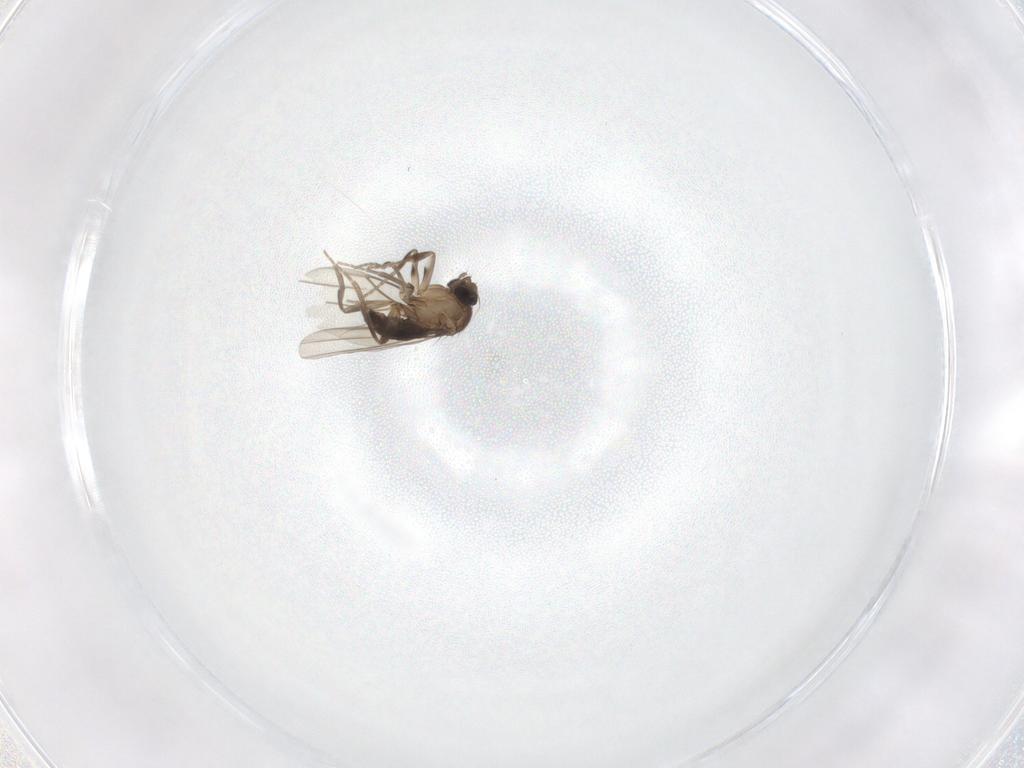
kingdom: Animalia
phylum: Arthropoda
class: Insecta
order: Diptera
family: Phoridae
